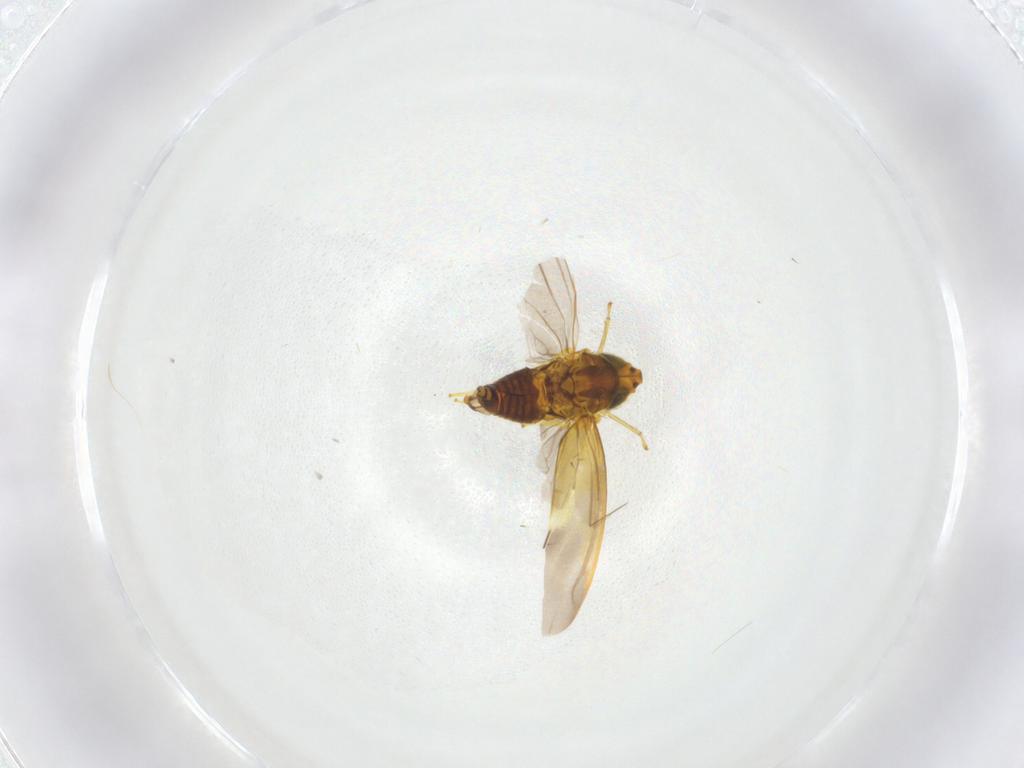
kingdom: Animalia
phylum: Arthropoda
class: Insecta
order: Hemiptera
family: Cicadellidae
